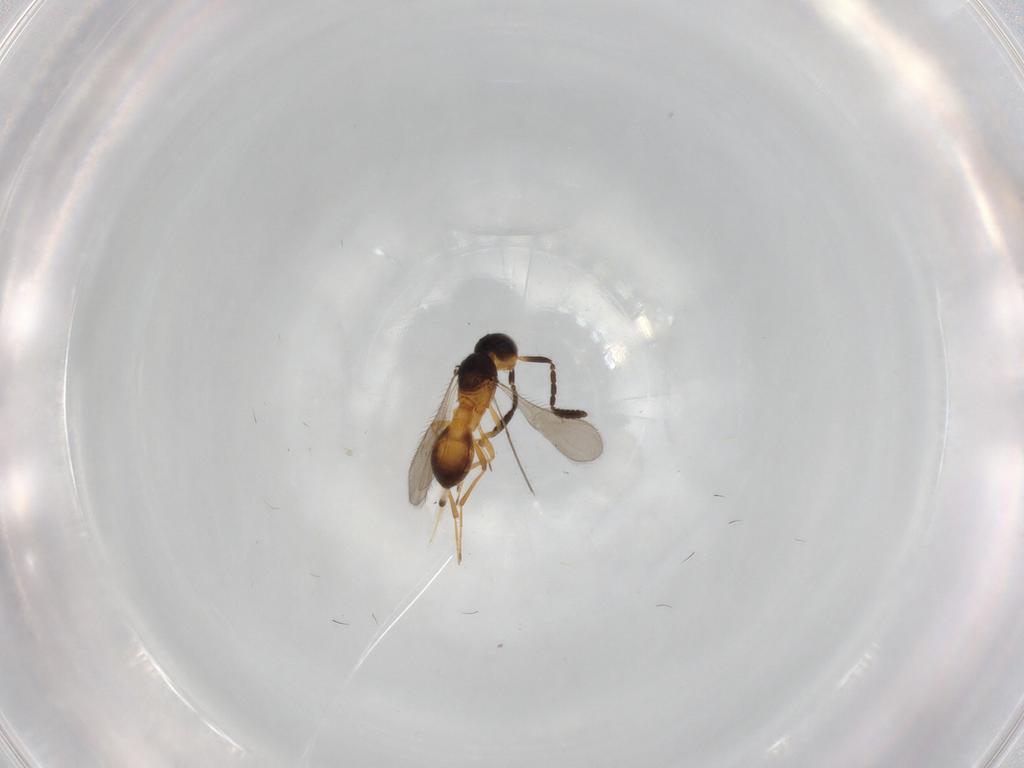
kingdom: Animalia
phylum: Arthropoda
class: Insecta
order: Hymenoptera
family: Scelionidae
